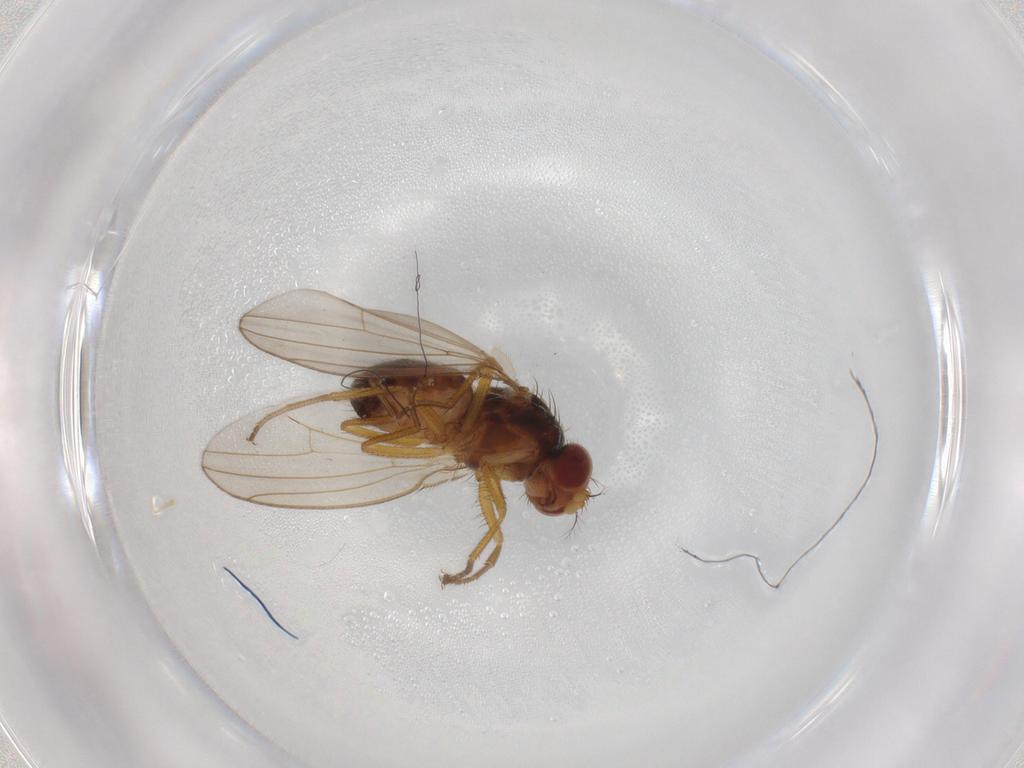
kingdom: Animalia
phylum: Arthropoda
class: Insecta
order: Diptera
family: Drosophilidae
